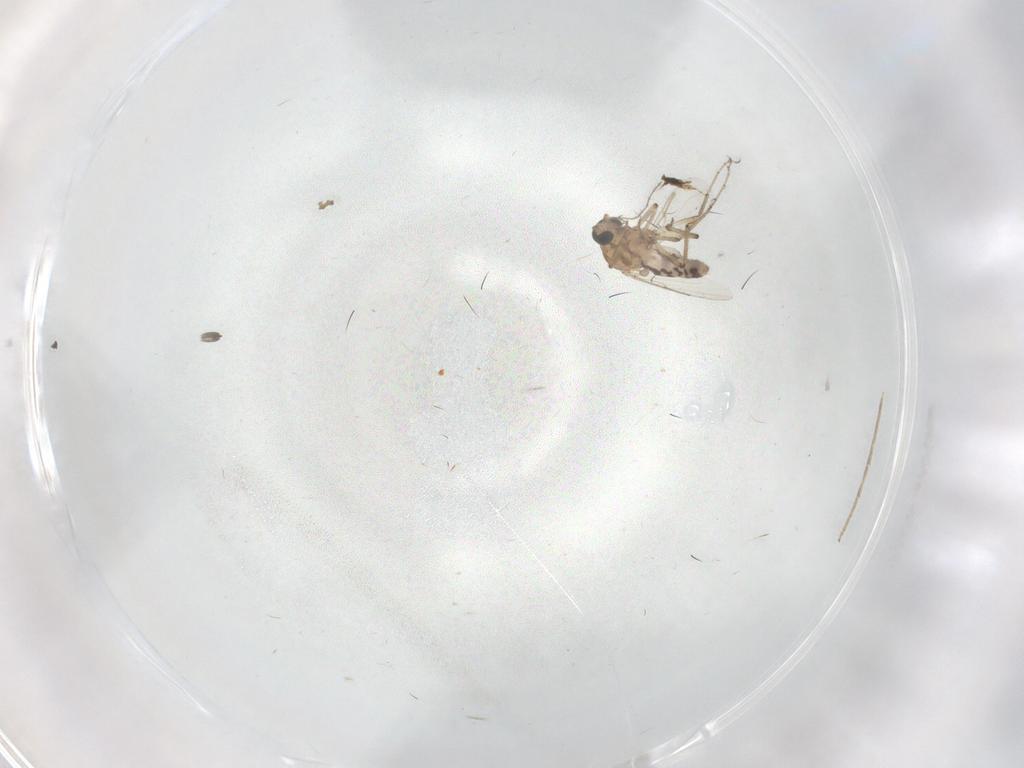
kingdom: Animalia
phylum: Arthropoda
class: Insecta
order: Diptera
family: Ceratopogonidae
